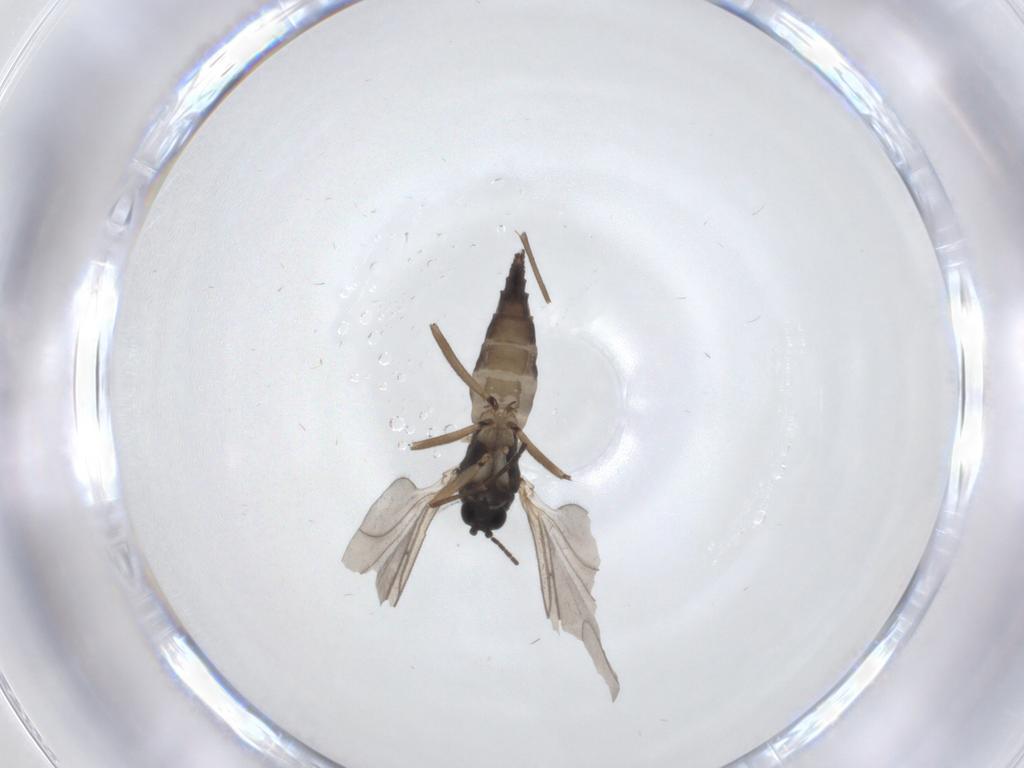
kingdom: Animalia
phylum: Arthropoda
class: Insecta
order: Diptera
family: Sciaridae
